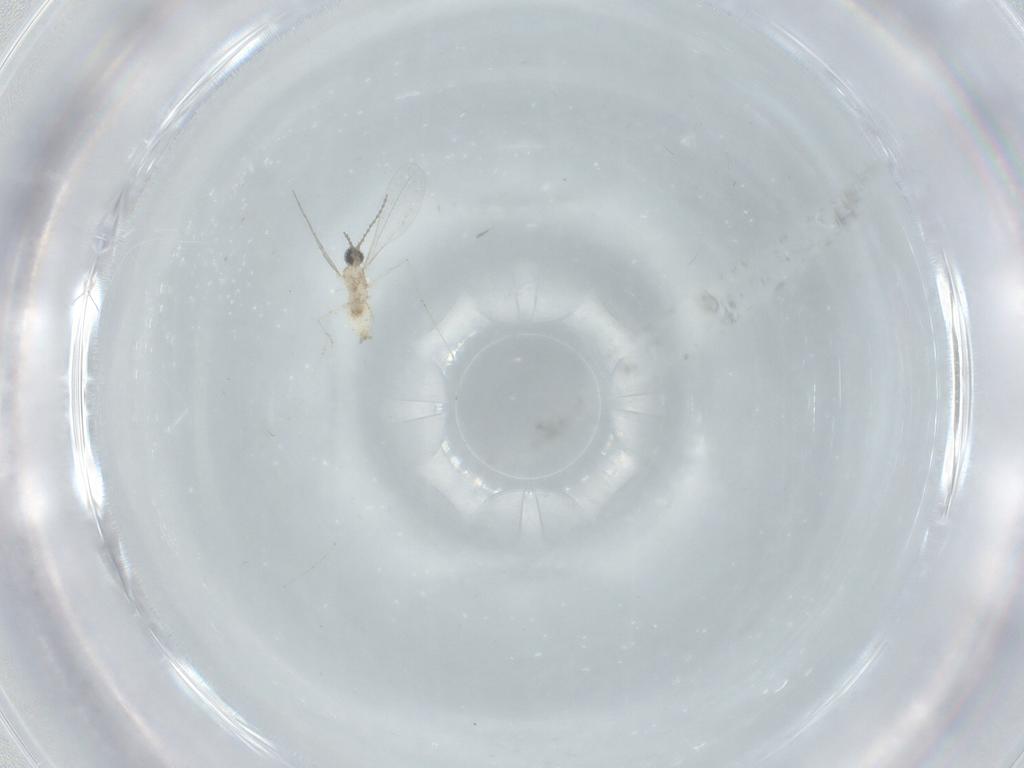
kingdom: Animalia
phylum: Arthropoda
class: Insecta
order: Diptera
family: Cecidomyiidae
